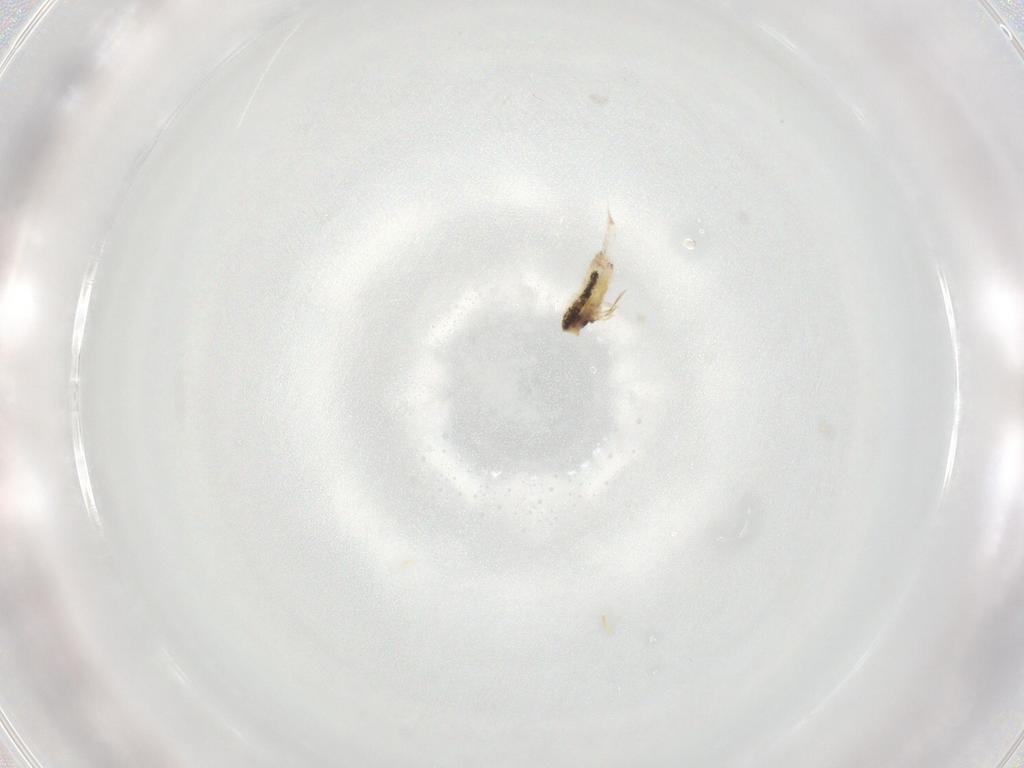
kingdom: Animalia
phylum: Arthropoda
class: Collembola
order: Entomobryomorpha
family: Entomobryidae
